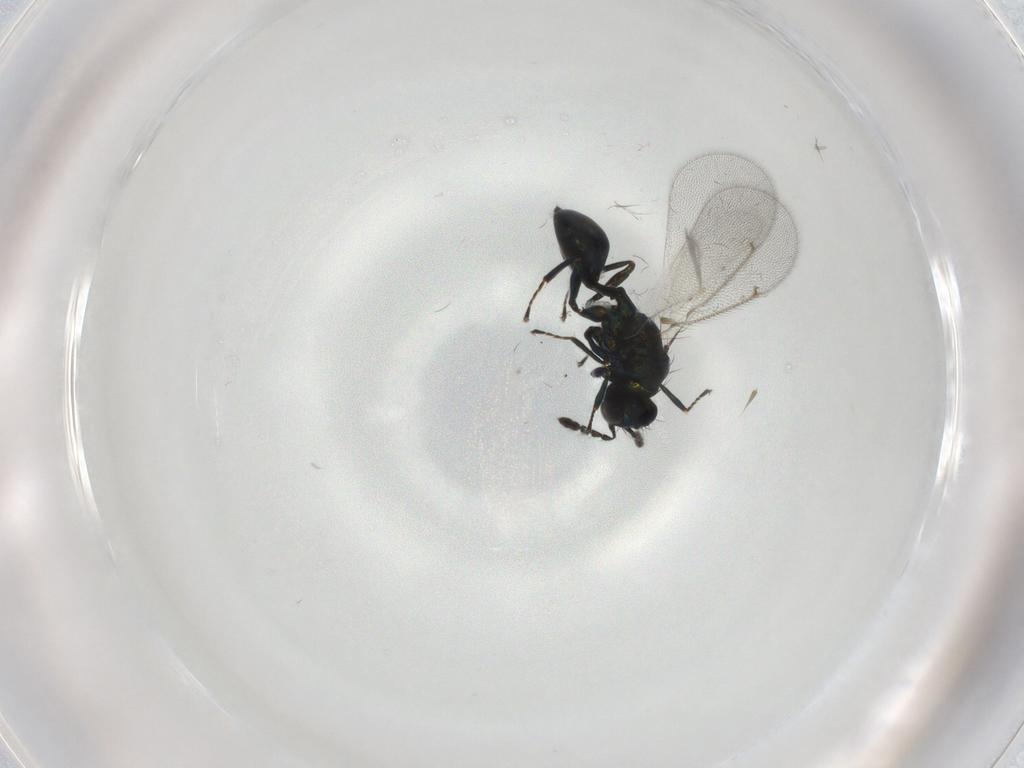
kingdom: Animalia
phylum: Arthropoda
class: Insecta
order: Hymenoptera
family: Eulophidae
